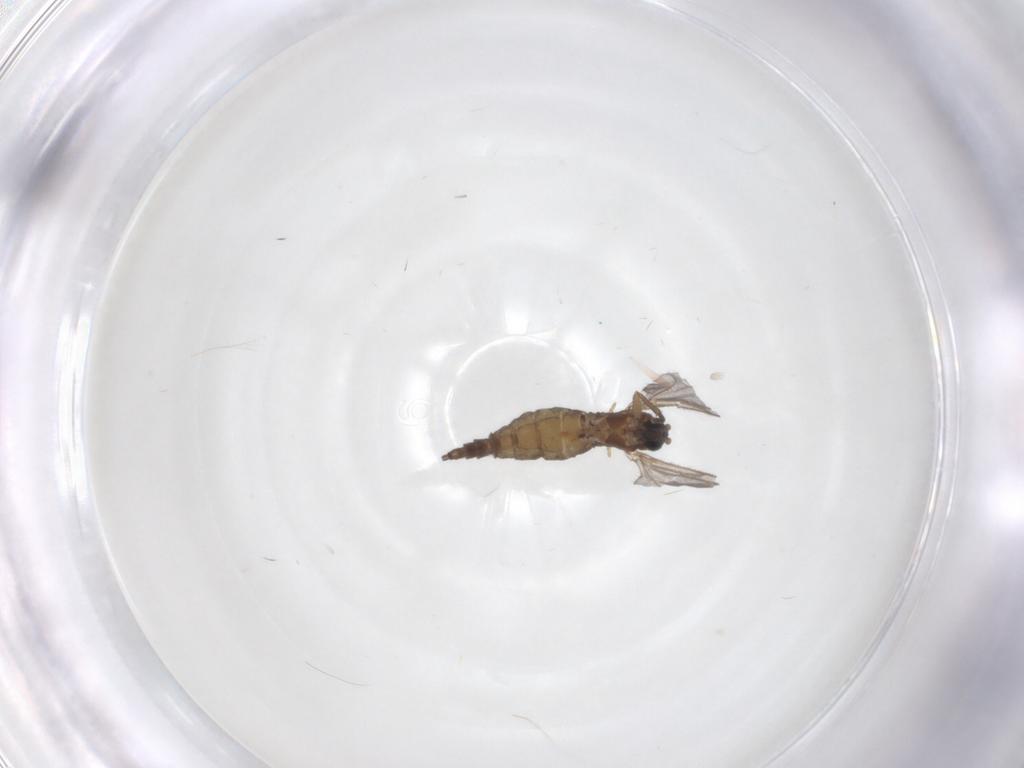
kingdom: Animalia
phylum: Arthropoda
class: Insecta
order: Diptera
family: Sciaridae
